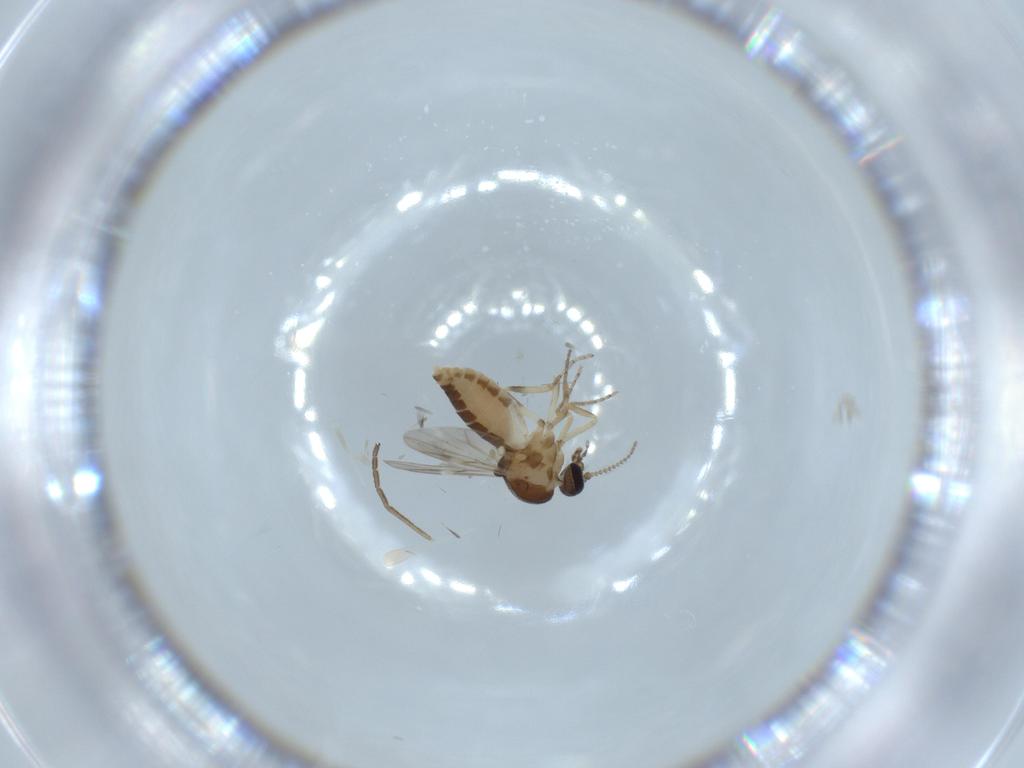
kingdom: Animalia
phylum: Arthropoda
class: Insecta
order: Diptera
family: Ceratopogonidae
